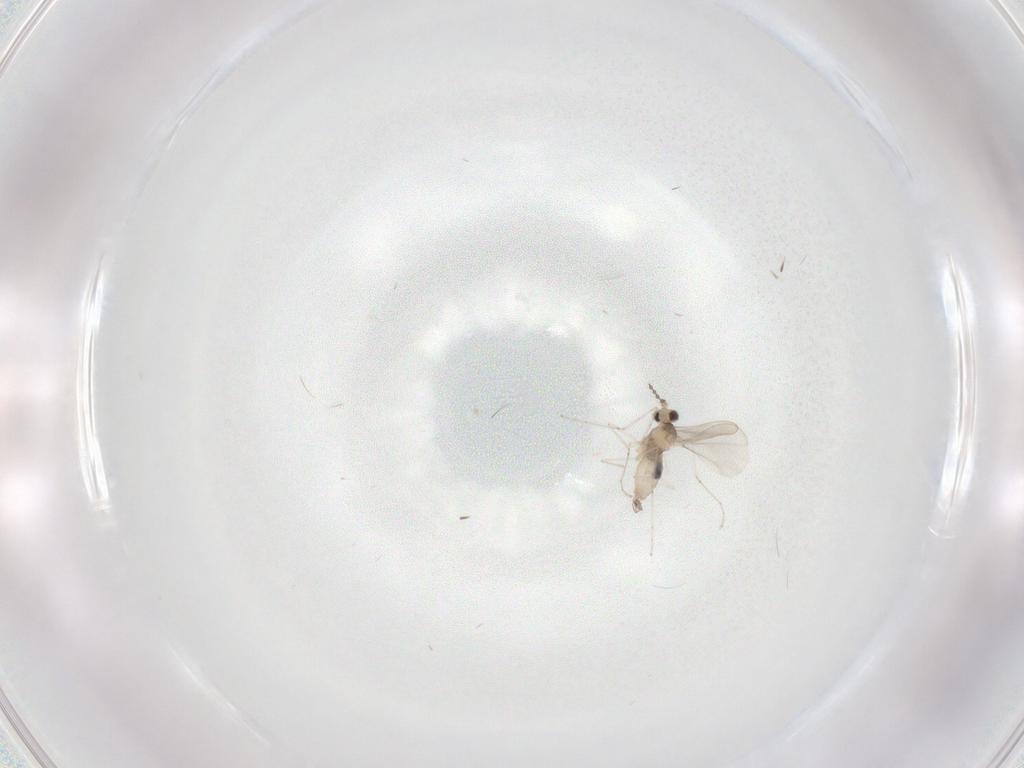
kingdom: Animalia
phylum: Arthropoda
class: Insecta
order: Diptera
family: Cecidomyiidae
